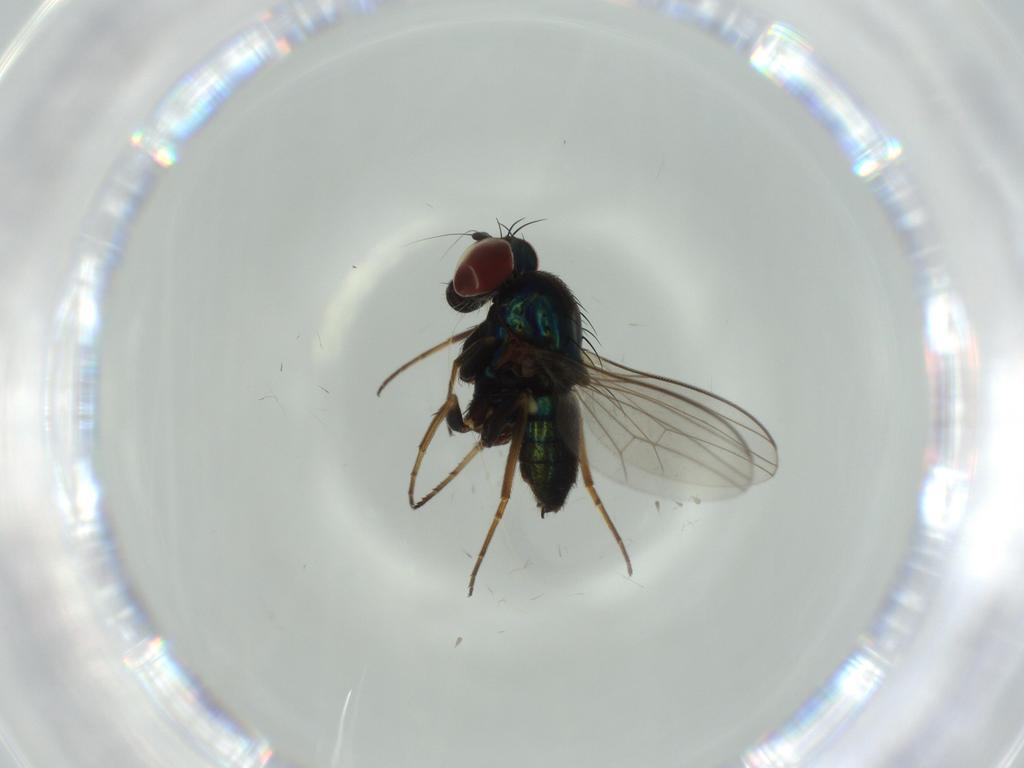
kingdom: Animalia
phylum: Arthropoda
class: Insecta
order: Diptera
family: Dolichopodidae
